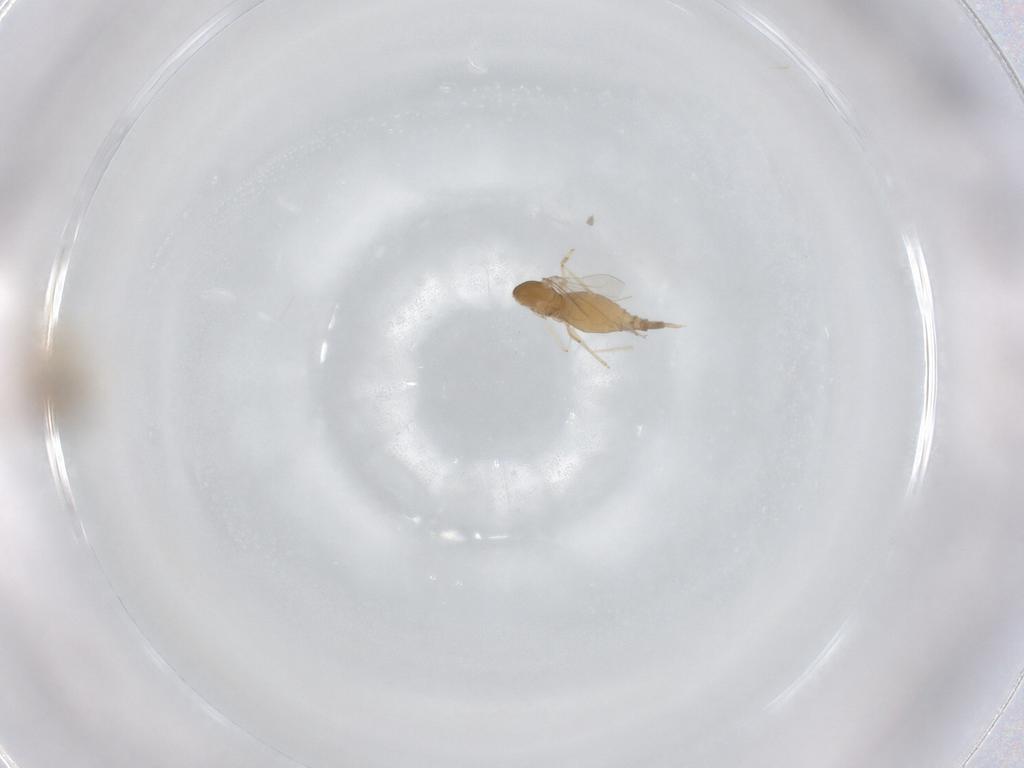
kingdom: Animalia
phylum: Arthropoda
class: Insecta
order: Diptera
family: Cecidomyiidae
